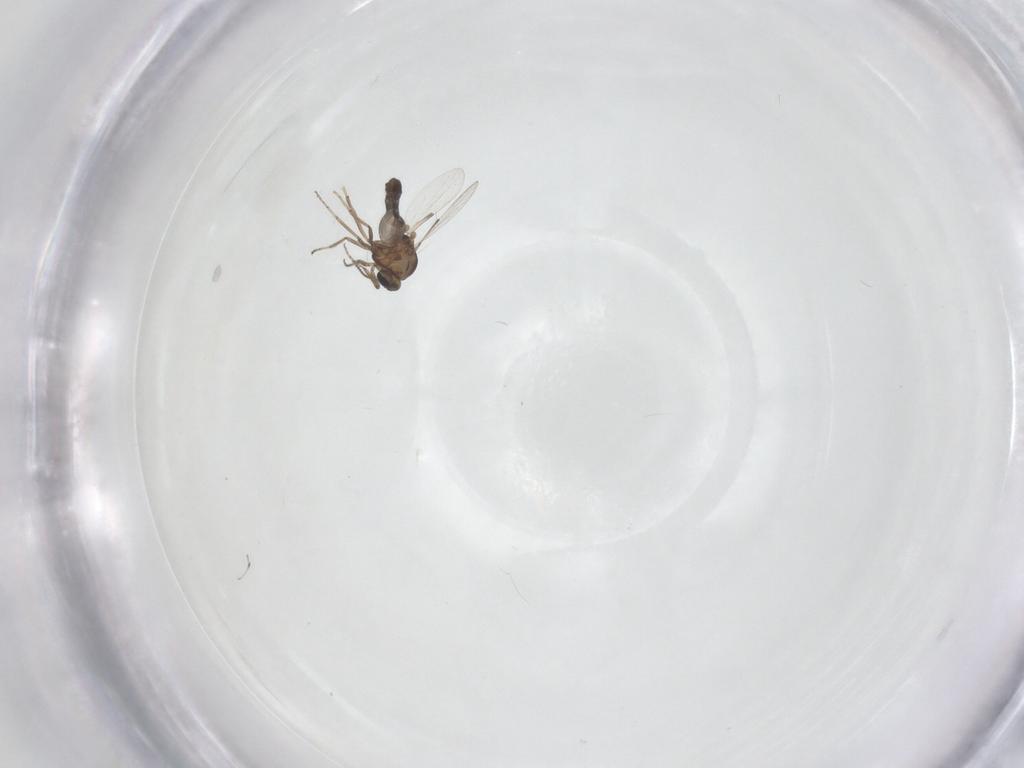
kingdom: Animalia
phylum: Arthropoda
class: Insecta
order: Diptera
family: Ceratopogonidae
